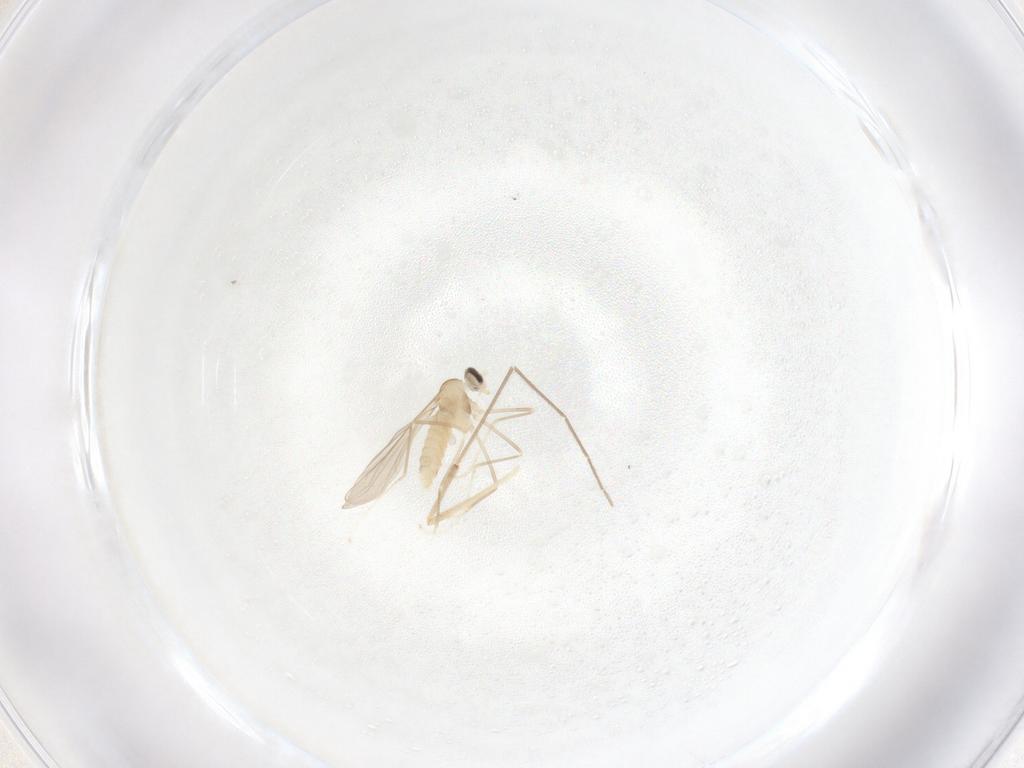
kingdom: Animalia
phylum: Arthropoda
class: Insecta
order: Diptera
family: Cecidomyiidae
